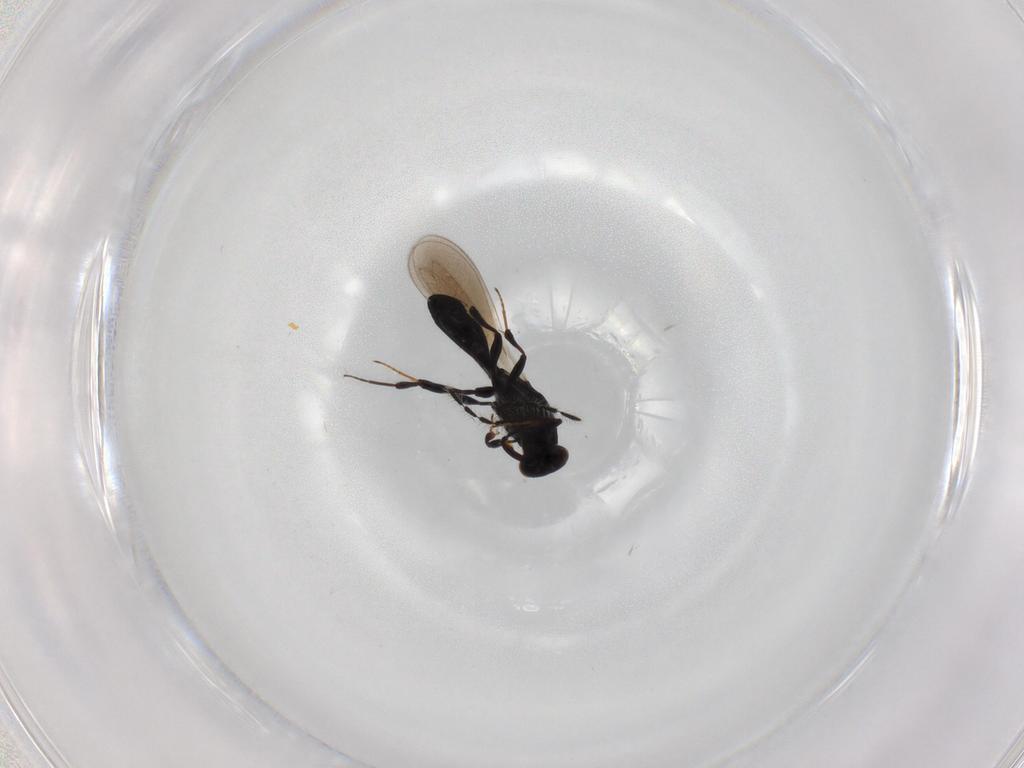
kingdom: Animalia
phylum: Arthropoda
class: Insecta
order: Hymenoptera
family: Platygastridae
